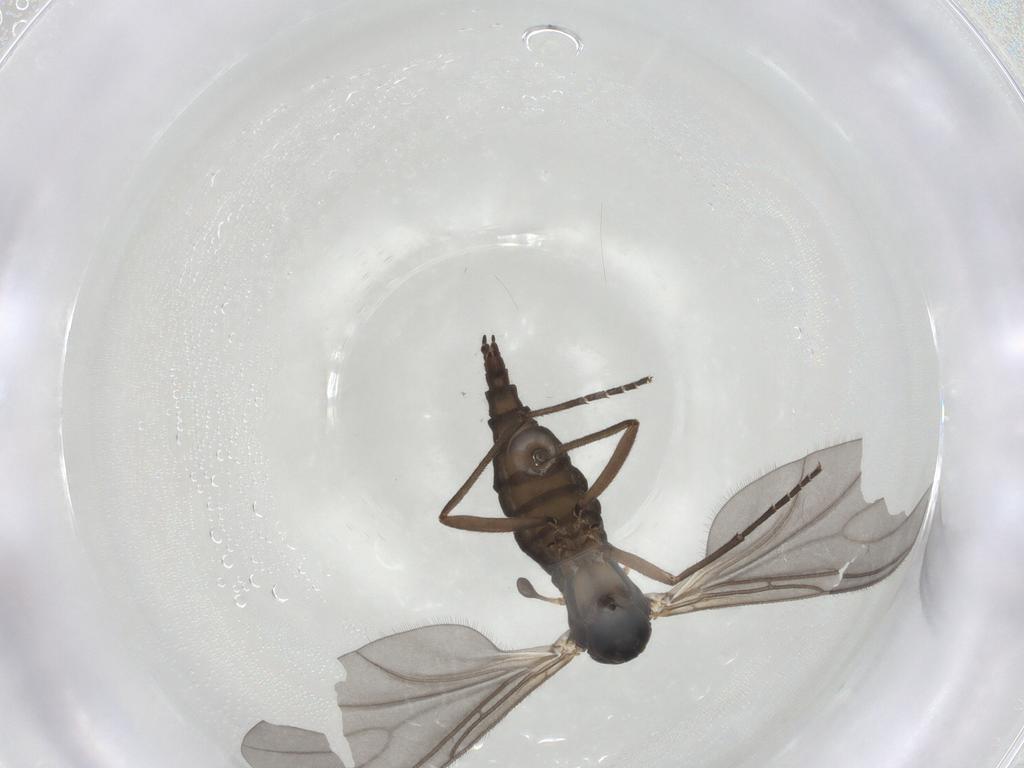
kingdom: Animalia
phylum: Arthropoda
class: Insecta
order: Diptera
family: Sciaridae
